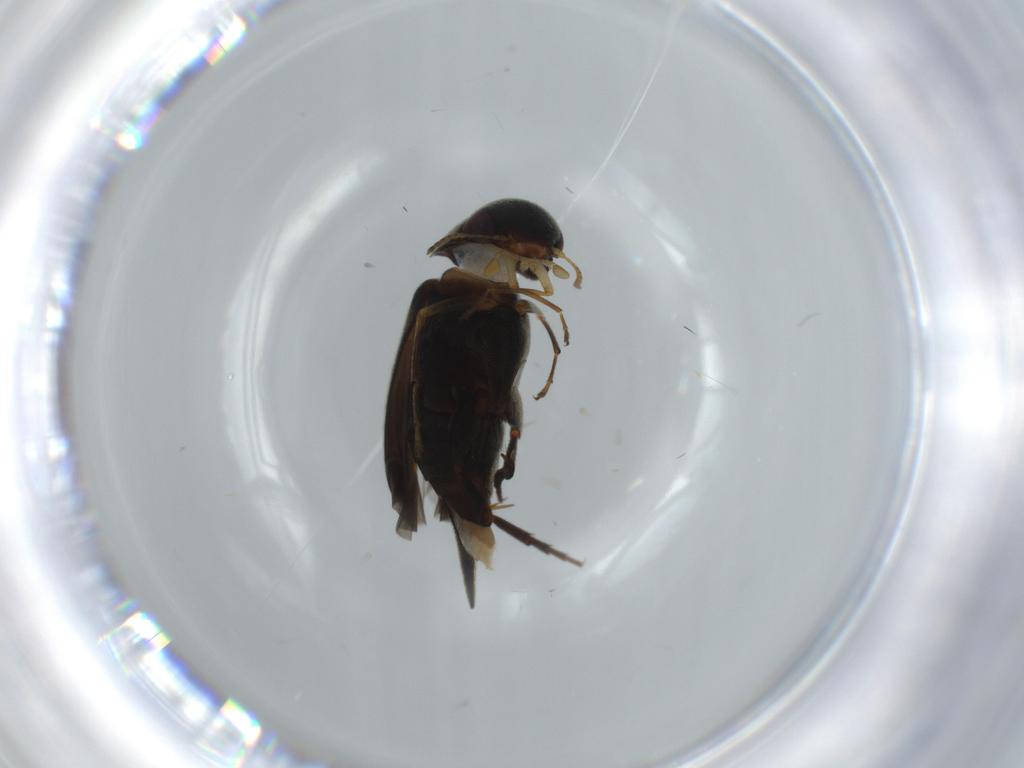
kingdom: Animalia
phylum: Arthropoda
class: Insecta
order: Coleoptera
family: Mordellidae
